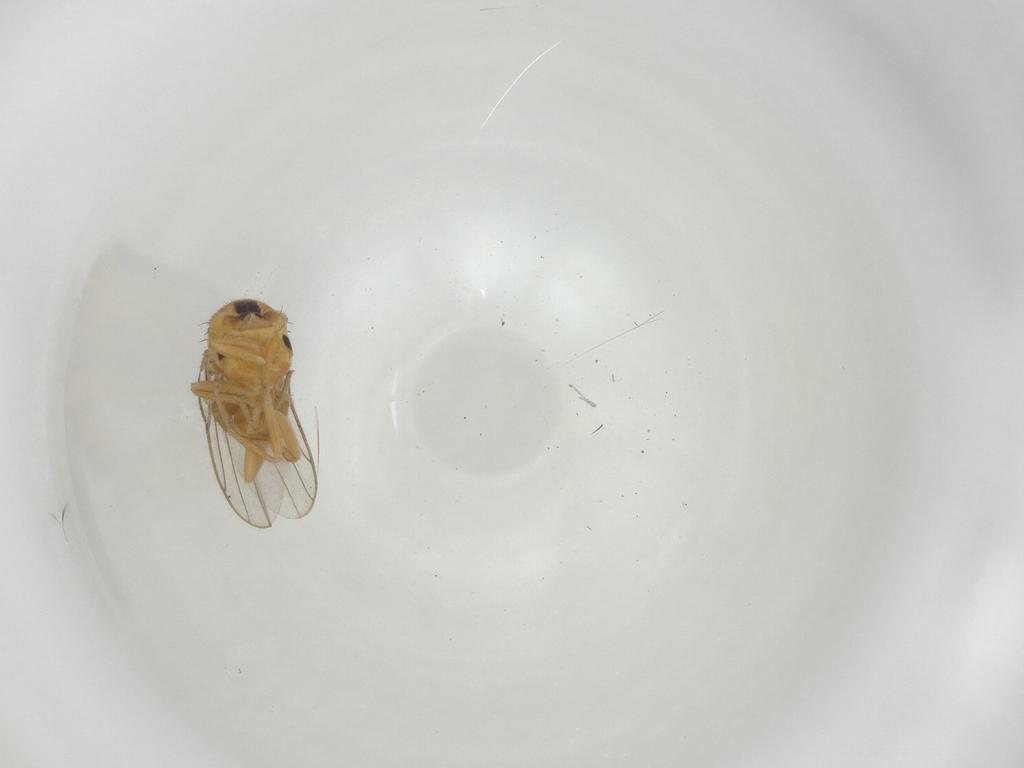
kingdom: Animalia
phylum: Arthropoda
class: Insecta
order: Diptera
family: Chloropidae
